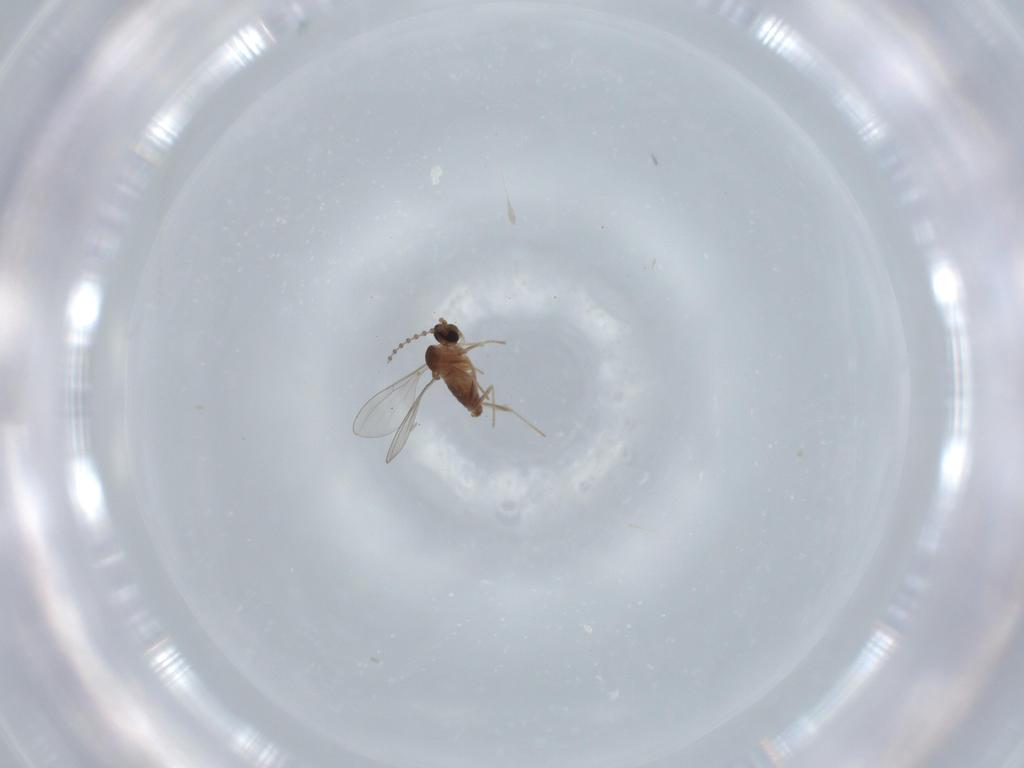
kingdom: Animalia
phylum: Arthropoda
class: Insecta
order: Diptera
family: Cecidomyiidae
